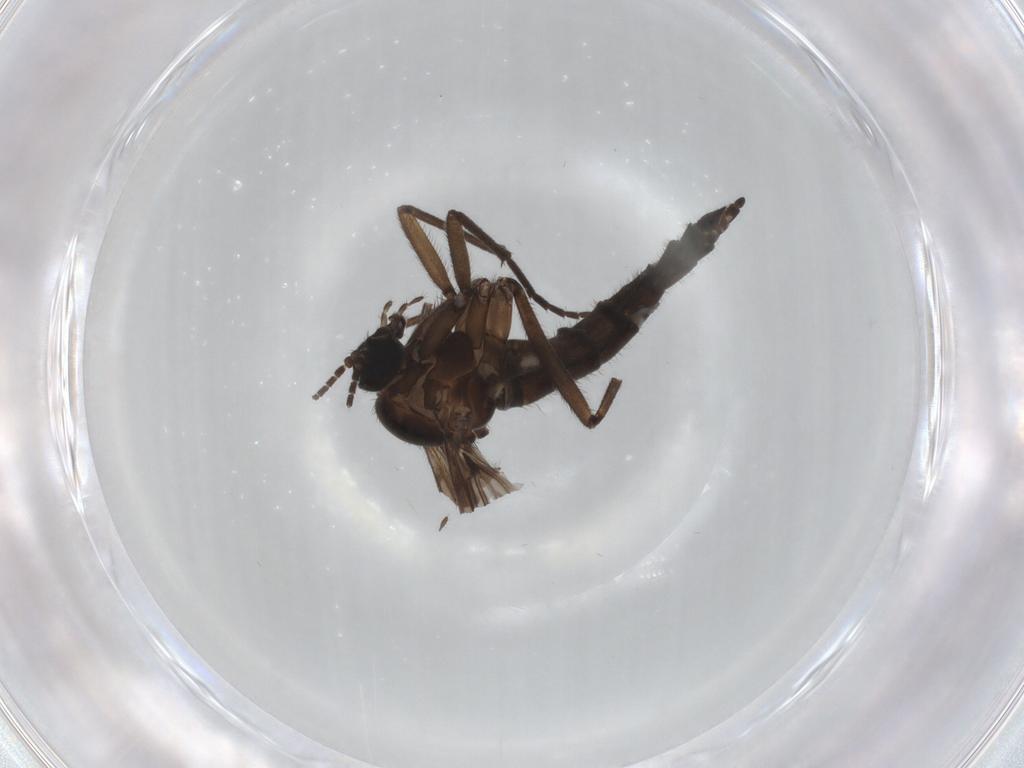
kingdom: Animalia
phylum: Arthropoda
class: Insecta
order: Diptera
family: Sciaridae
